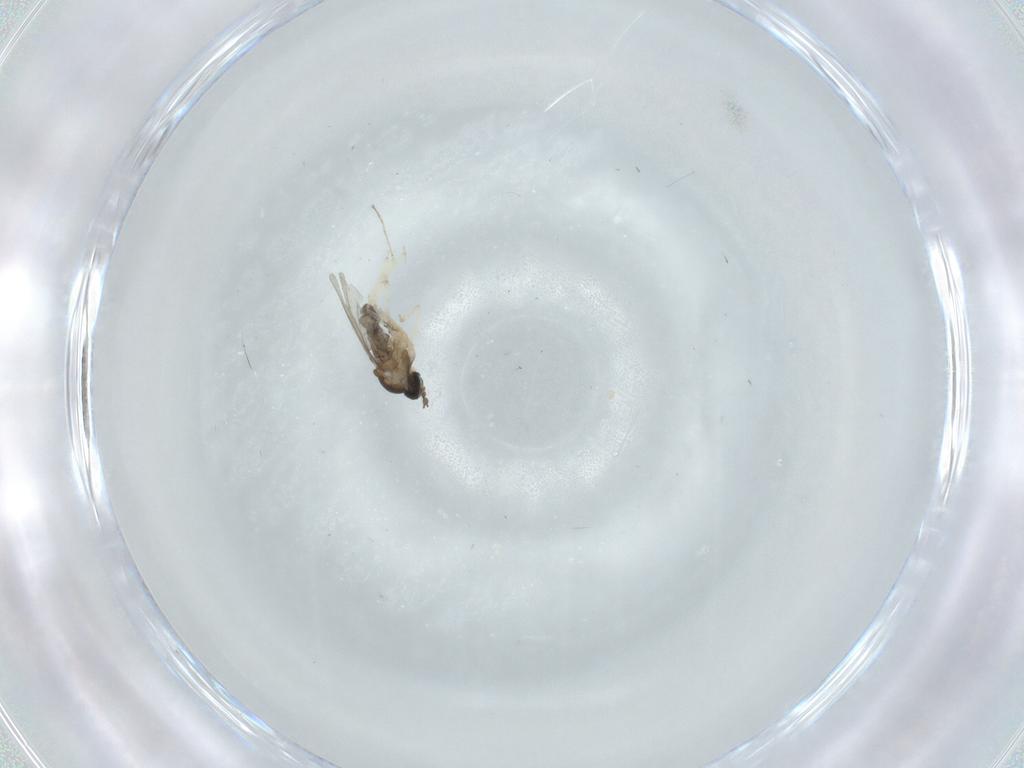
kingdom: Animalia
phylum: Arthropoda
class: Insecta
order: Diptera
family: Cecidomyiidae
